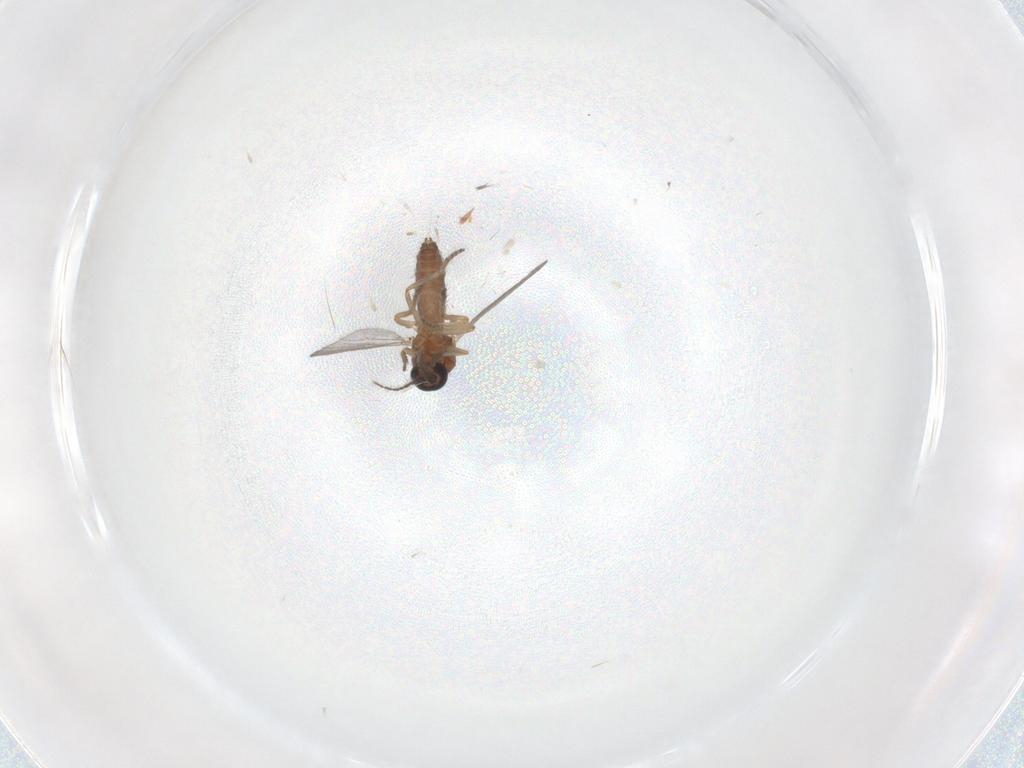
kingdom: Animalia
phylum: Arthropoda
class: Insecta
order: Diptera
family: Ceratopogonidae
